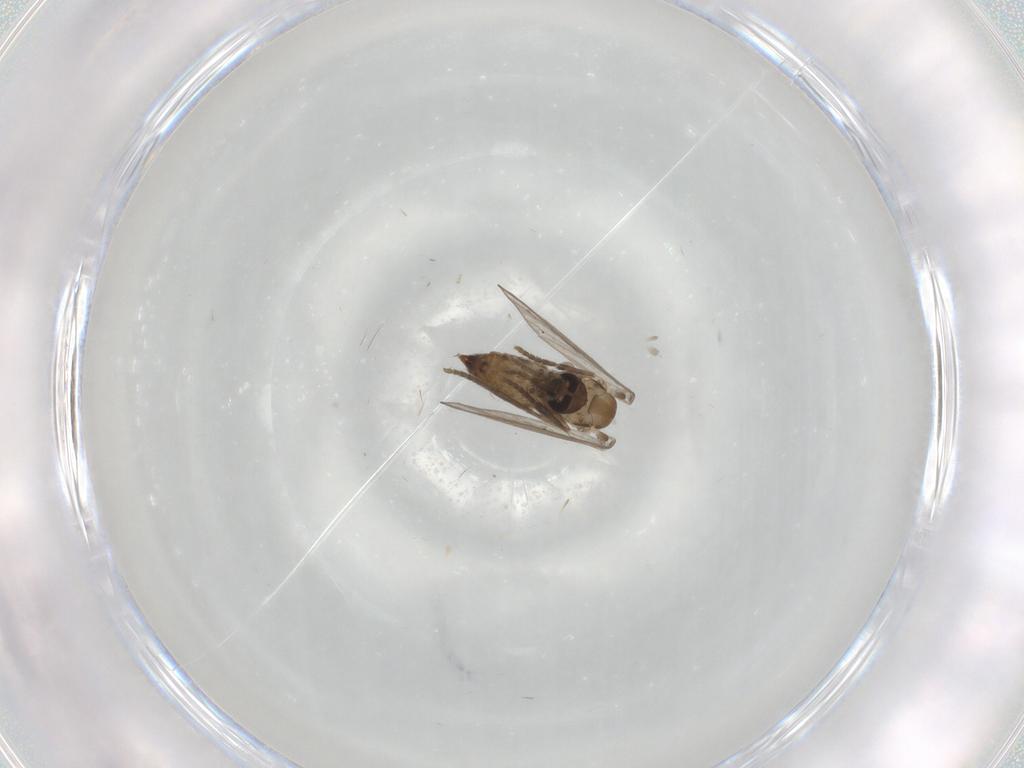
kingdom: Animalia
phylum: Arthropoda
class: Insecta
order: Diptera
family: Psychodidae
